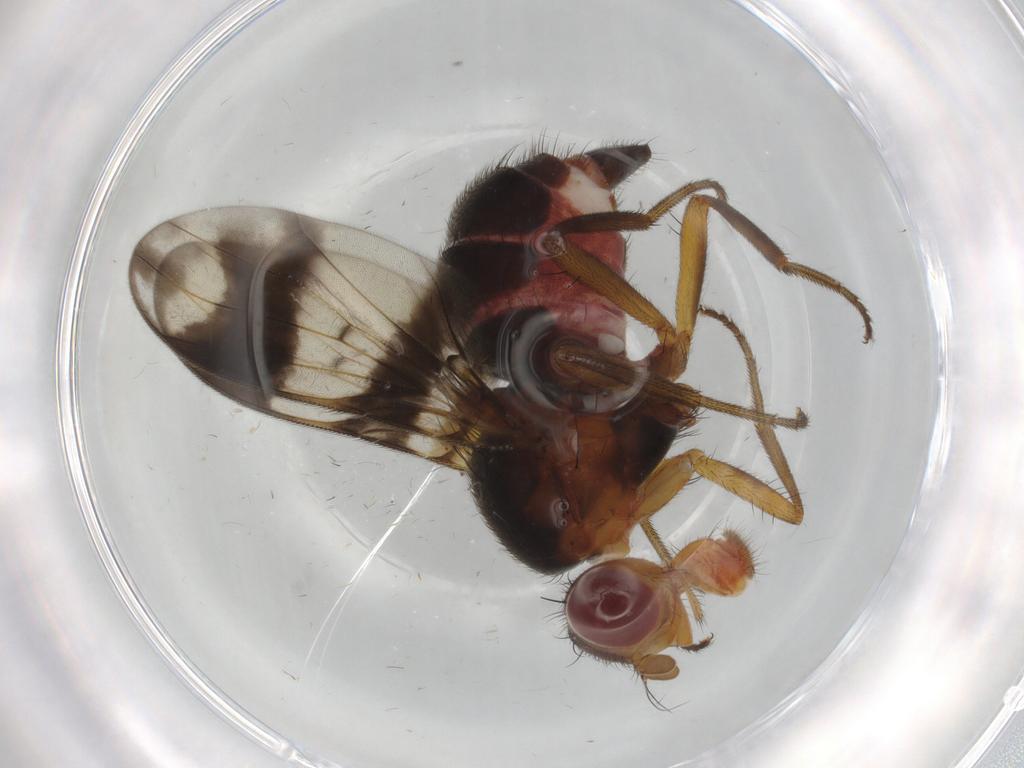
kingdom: Animalia
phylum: Arthropoda
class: Insecta
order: Diptera
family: Richardiidae
